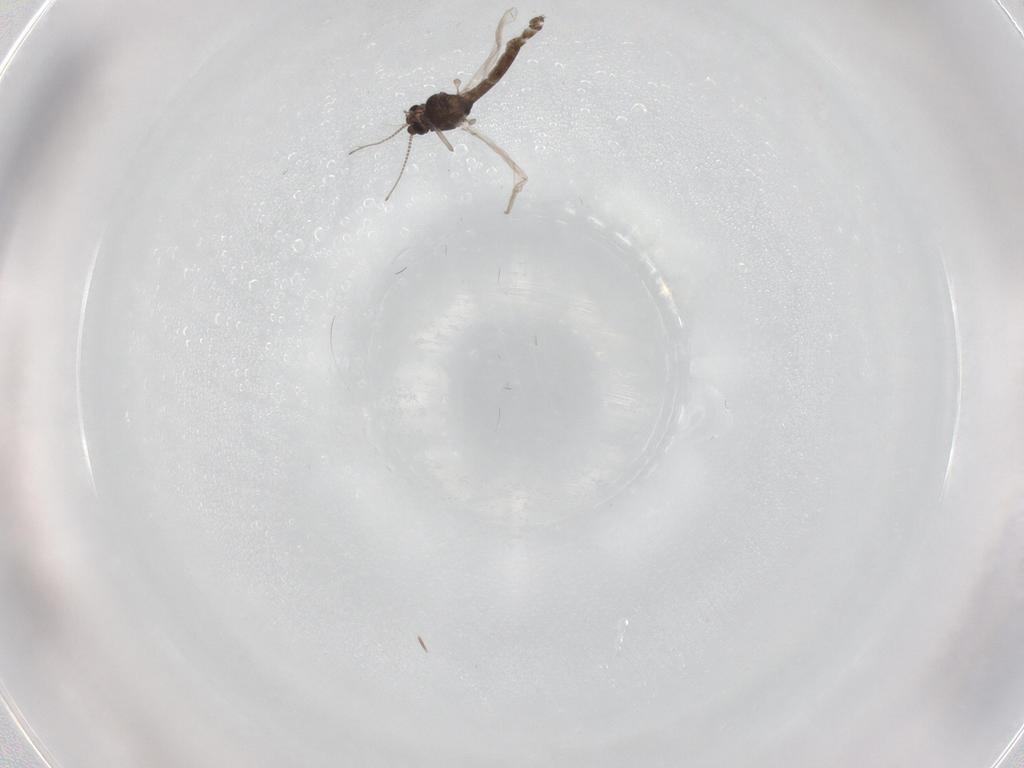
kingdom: Animalia
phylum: Arthropoda
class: Insecta
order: Diptera
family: Chironomidae
